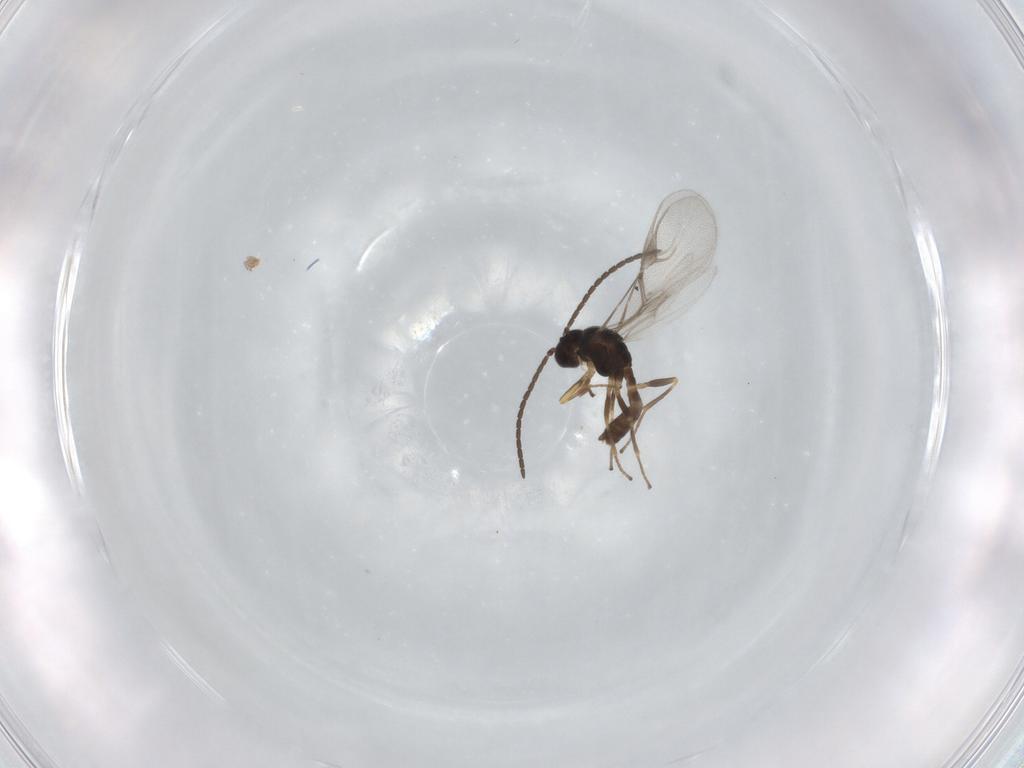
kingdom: Animalia
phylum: Arthropoda
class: Insecta
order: Hymenoptera
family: Braconidae
